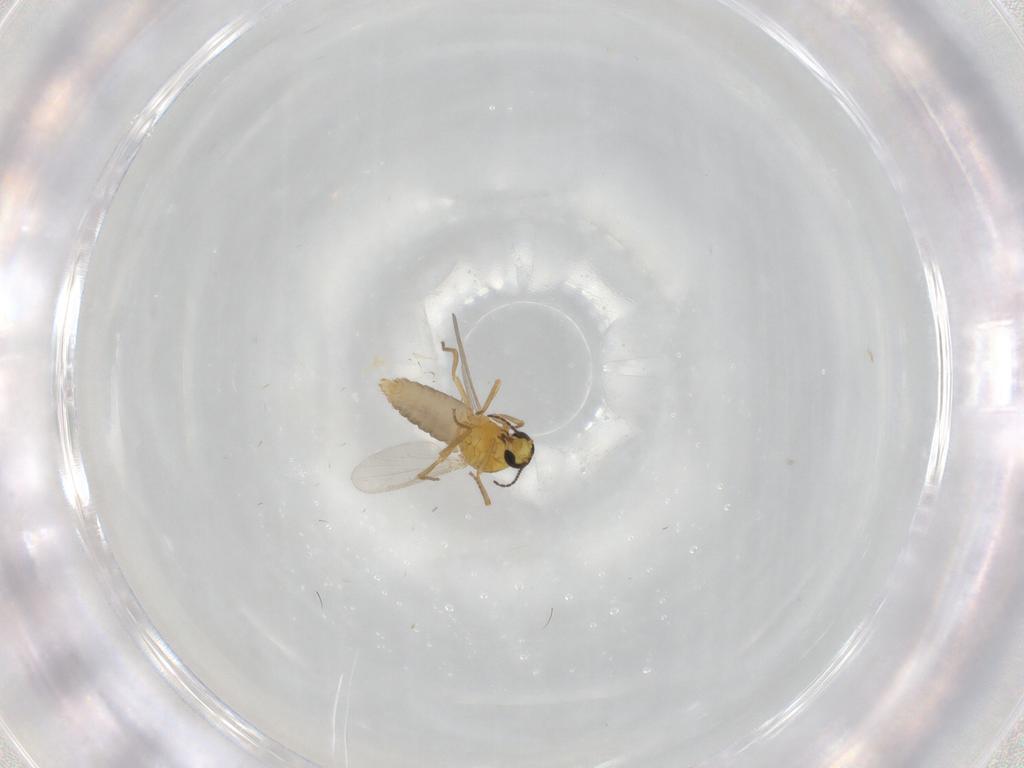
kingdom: Animalia
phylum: Arthropoda
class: Insecta
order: Diptera
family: Ceratopogonidae
